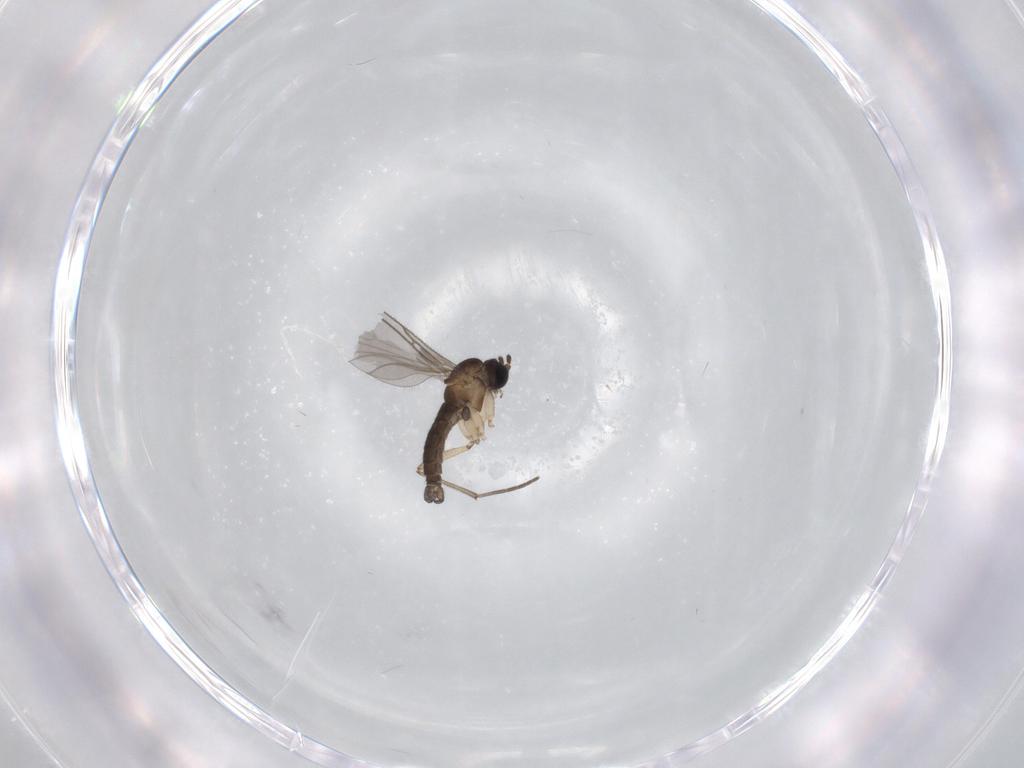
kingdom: Animalia
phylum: Arthropoda
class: Insecta
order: Diptera
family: Sciaridae
